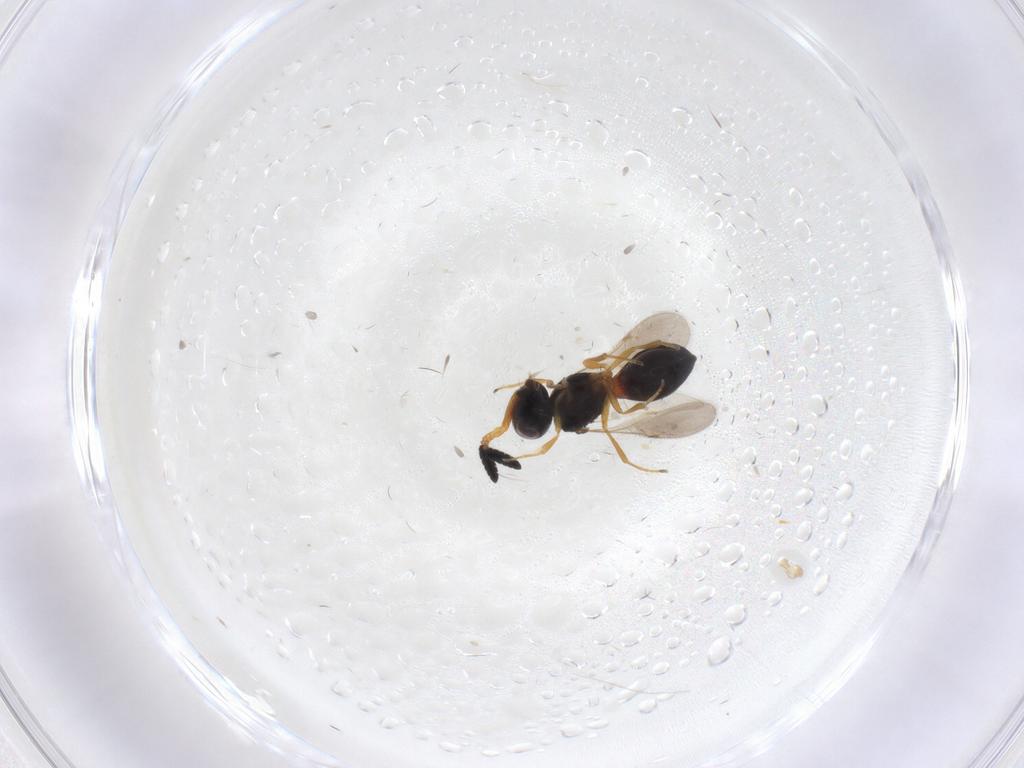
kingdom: Animalia
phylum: Arthropoda
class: Insecta
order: Hymenoptera
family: Scelionidae
